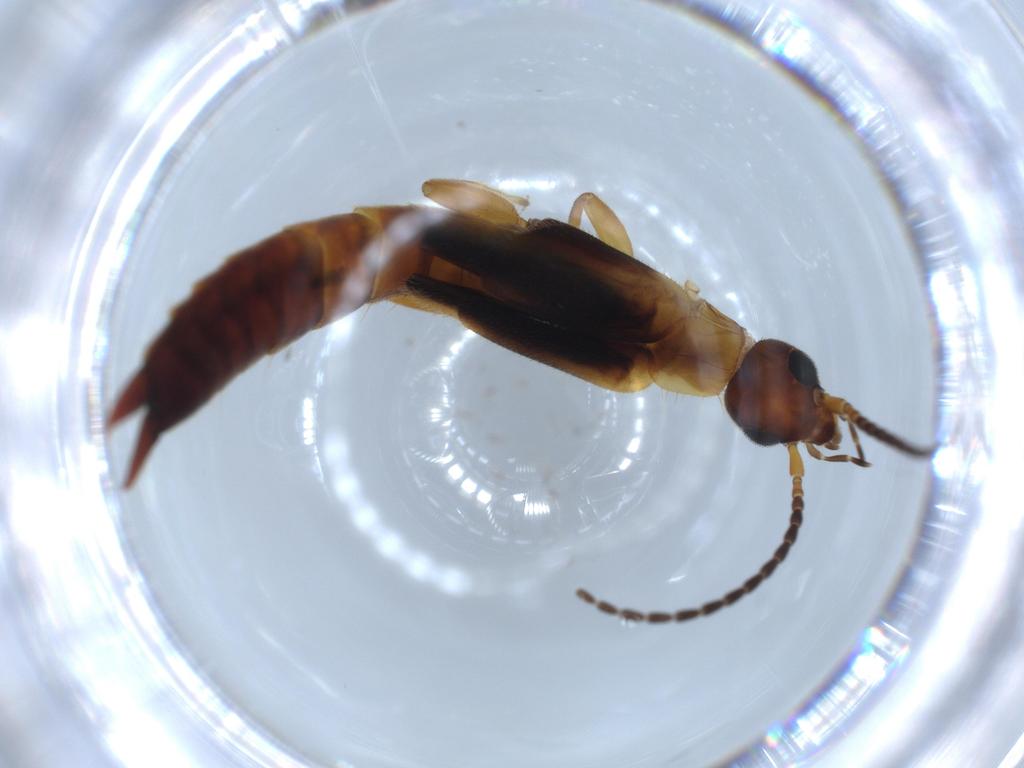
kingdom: Animalia
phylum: Arthropoda
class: Insecta
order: Dermaptera
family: Forficulidae
